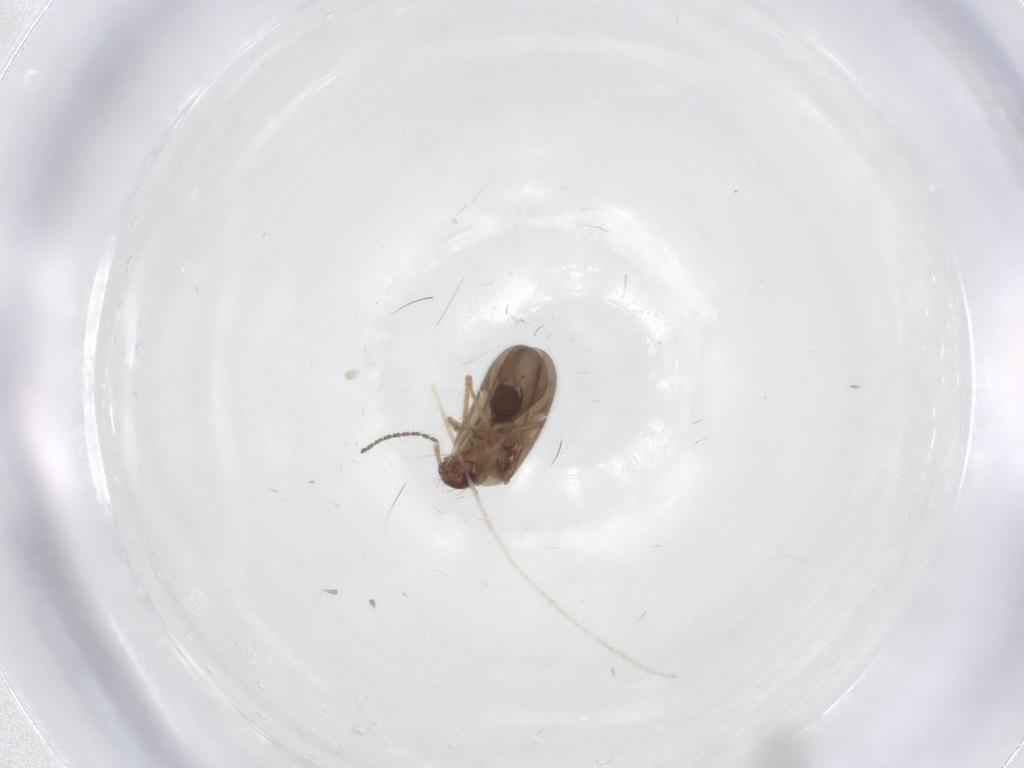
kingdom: Animalia
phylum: Arthropoda
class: Insecta
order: Hemiptera
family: Ceratocombidae
